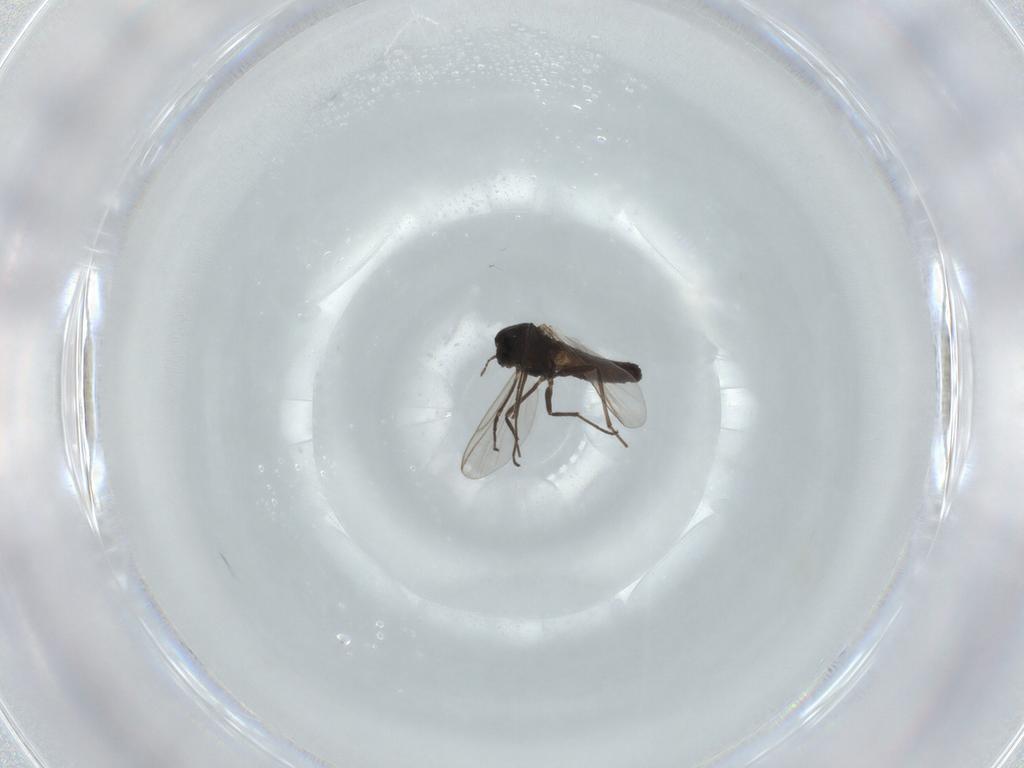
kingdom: Animalia
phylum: Arthropoda
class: Insecta
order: Diptera
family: Chironomidae
